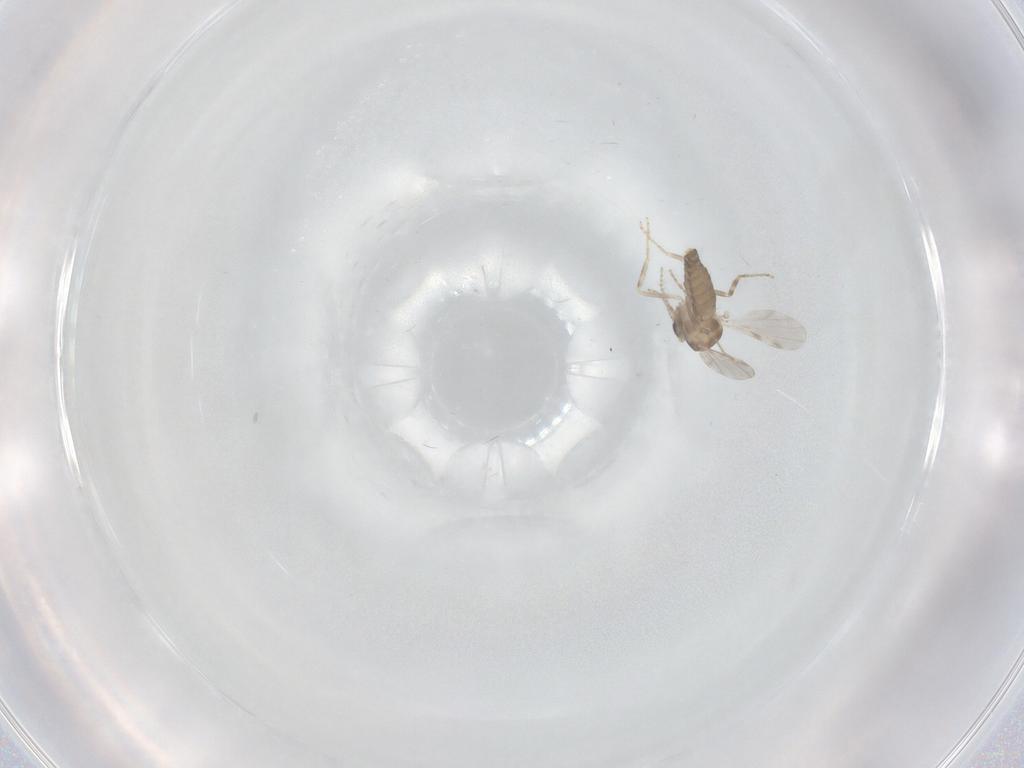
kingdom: Animalia
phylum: Arthropoda
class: Insecta
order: Diptera
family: Ceratopogonidae
